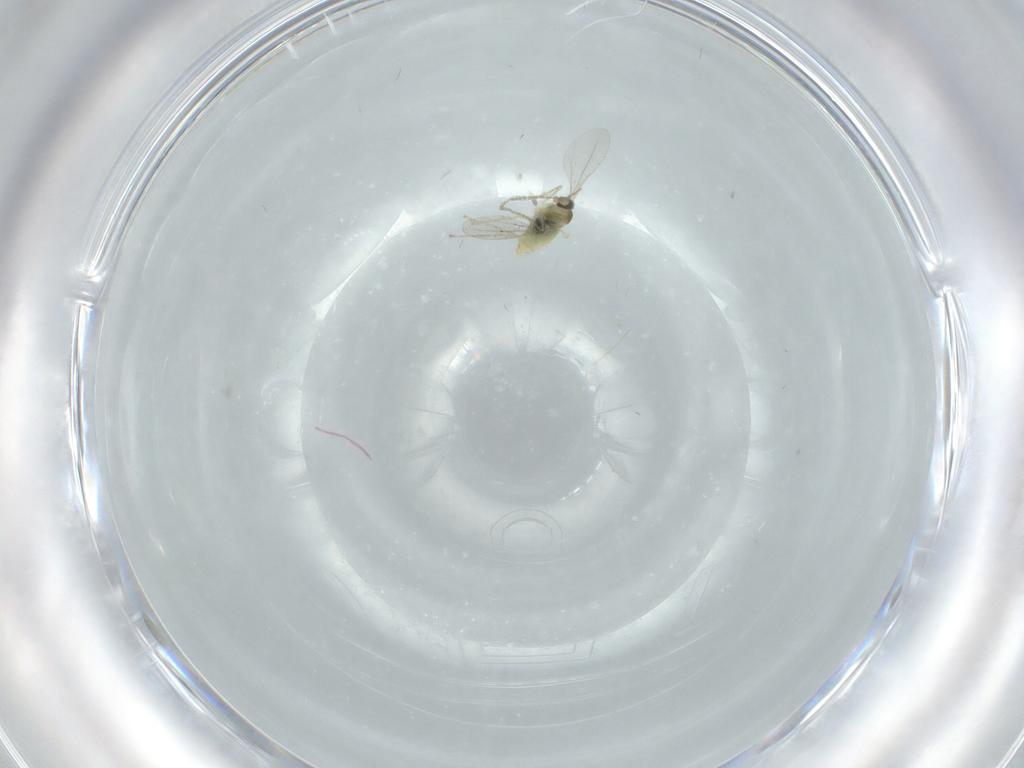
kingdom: Animalia
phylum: Arthropoda
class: Insecta
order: Diptera
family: Cecidomyiidae
